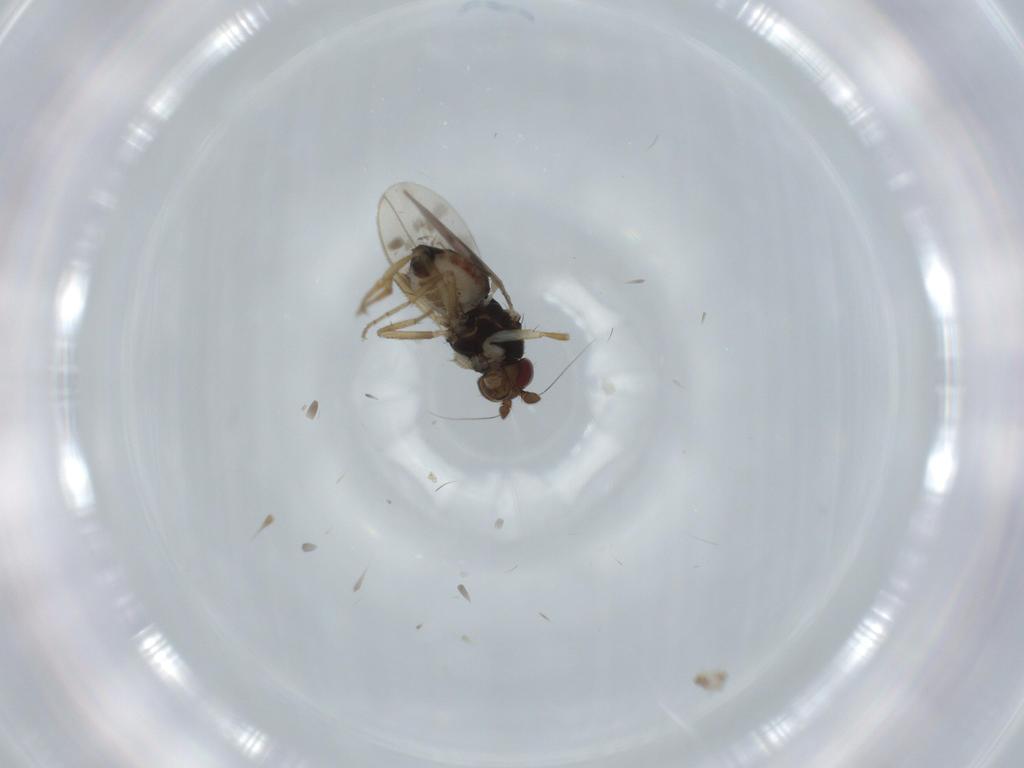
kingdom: Animalia
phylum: Arthropoda
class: Insecta
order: Diptera
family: Sphaeroceridae
